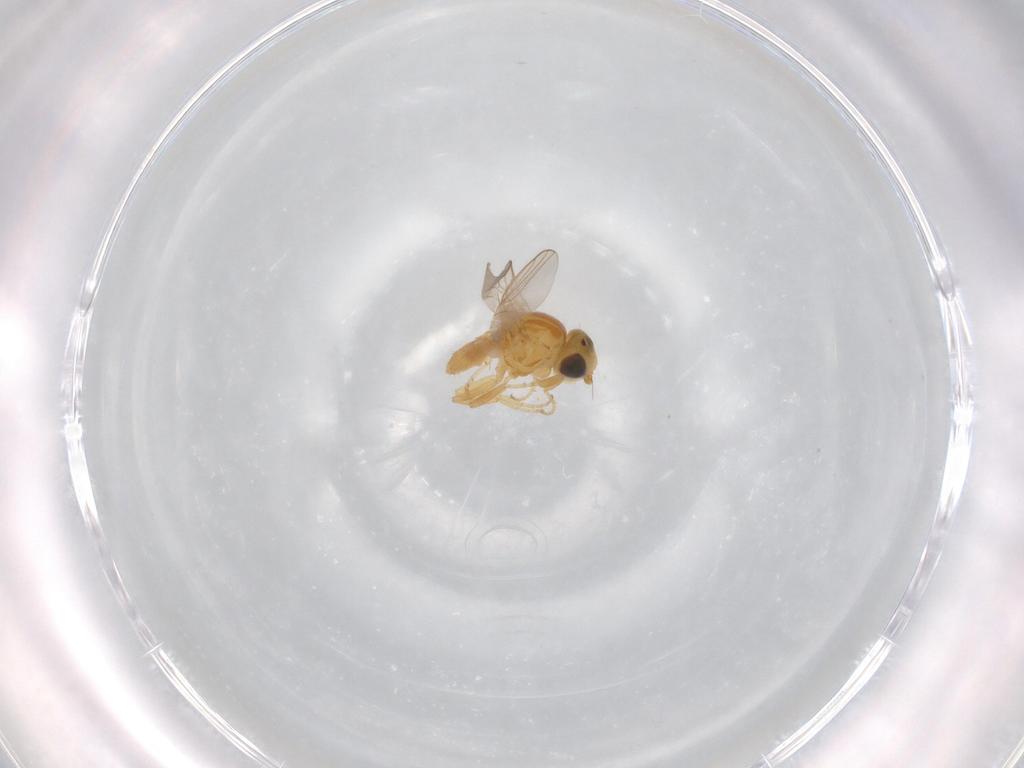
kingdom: Animalia
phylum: Arthropoda
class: Insecta
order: Diptera
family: Chloropidae
